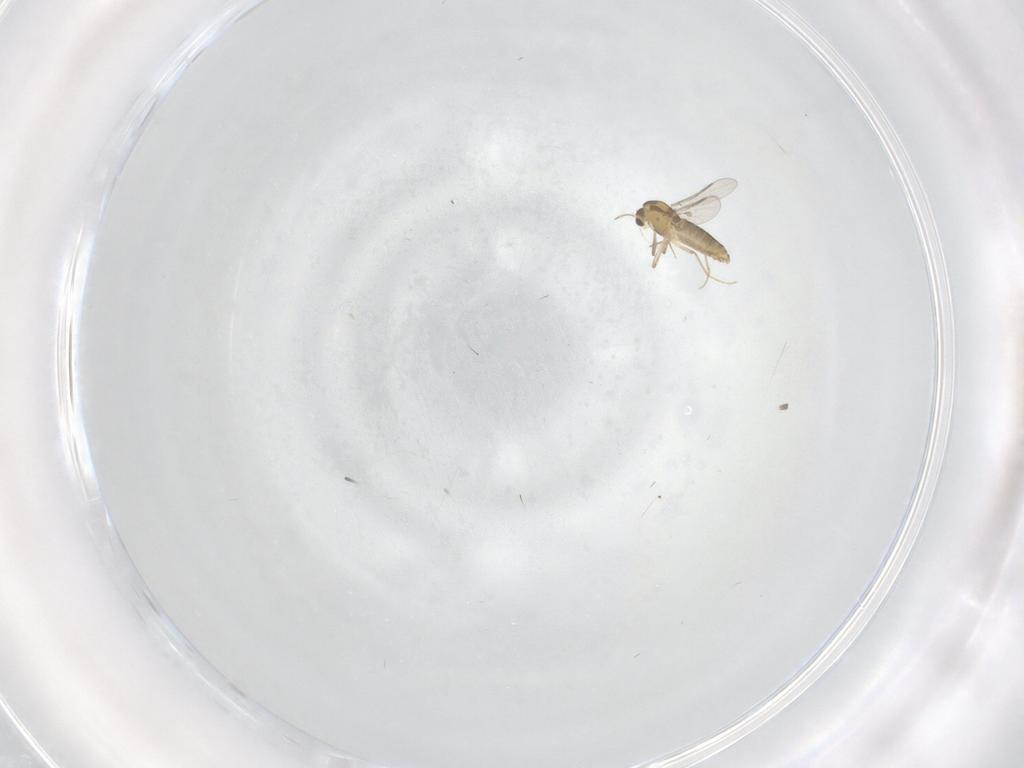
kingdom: Animalia
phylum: Arthropoda
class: Insecta
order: Diptera
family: Chironomidae
